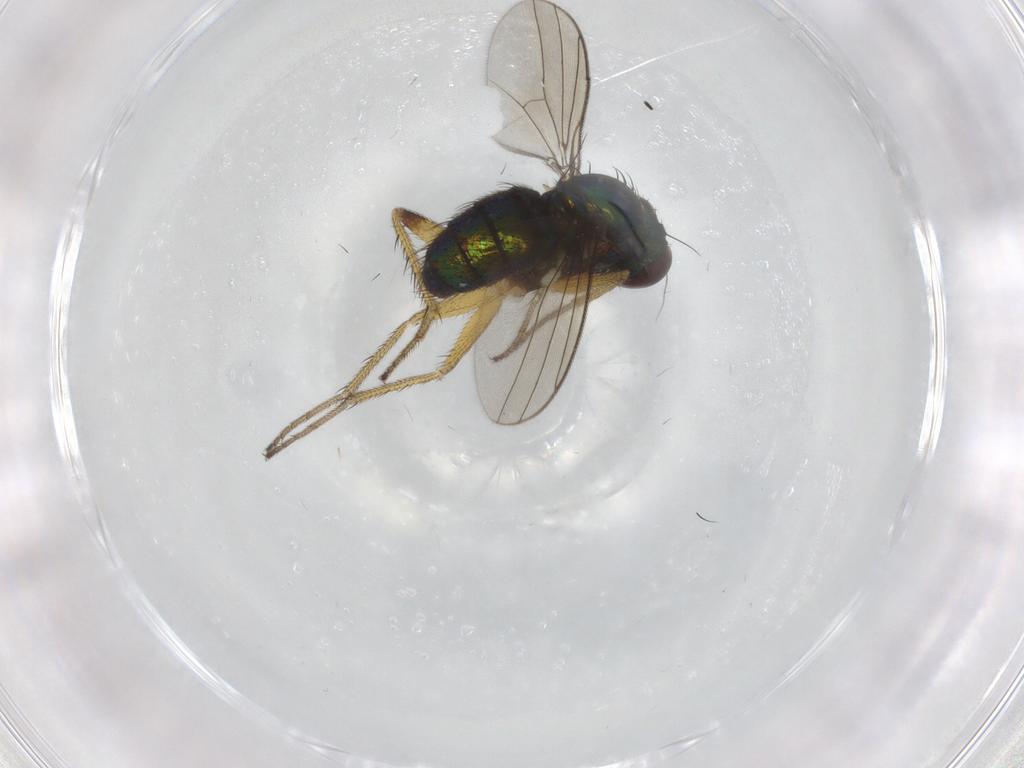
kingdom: Animalia
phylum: Arthropoda
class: Insecta
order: Diptera
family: Dolichopodidae
